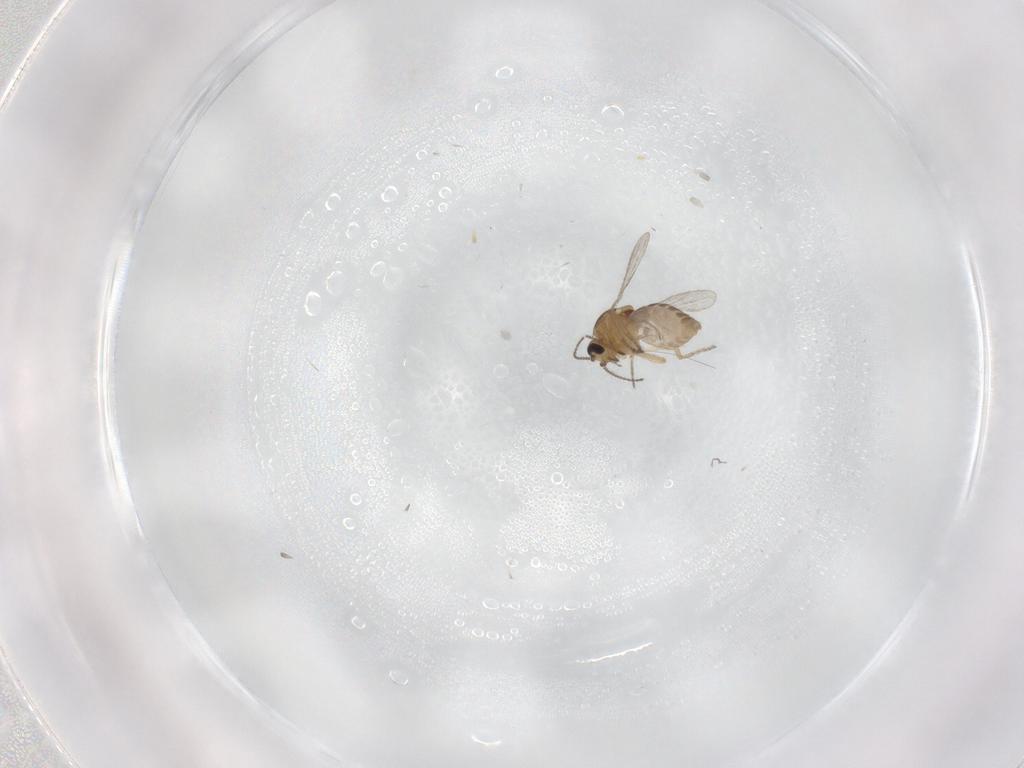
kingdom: Animalia
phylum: Arthropoda
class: Insecta
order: Diptera
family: Ceratopogonidae
